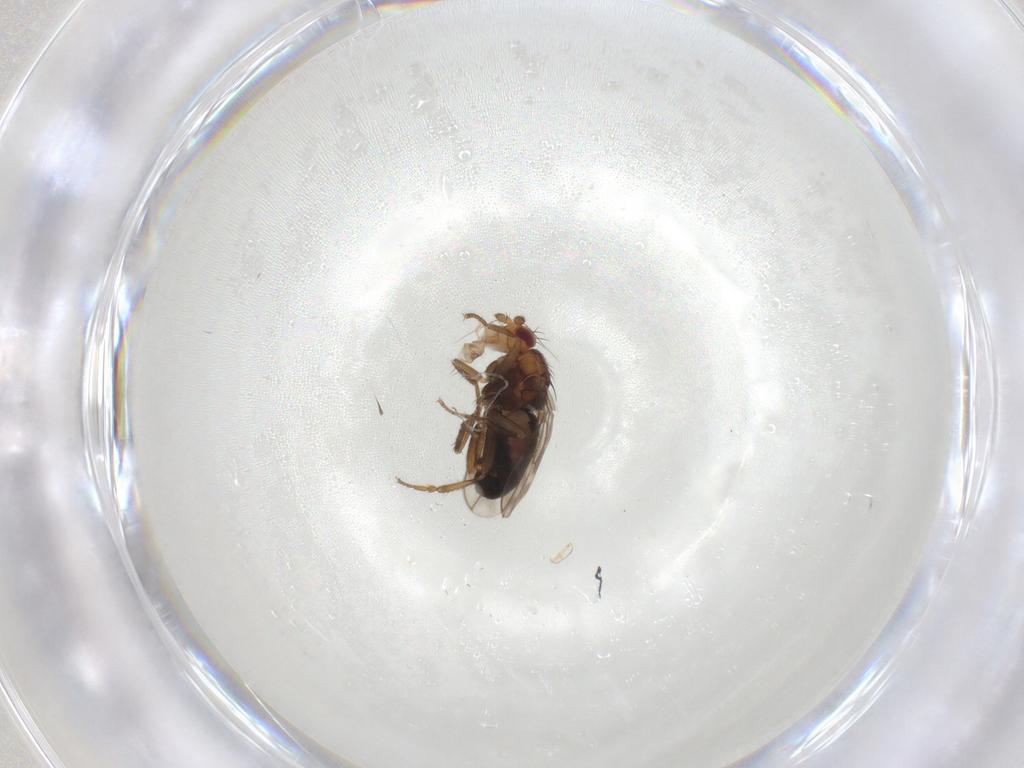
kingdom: Animalia
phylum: Arthropoda
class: Insecta
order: Diptera
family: Sphaeroceridae
